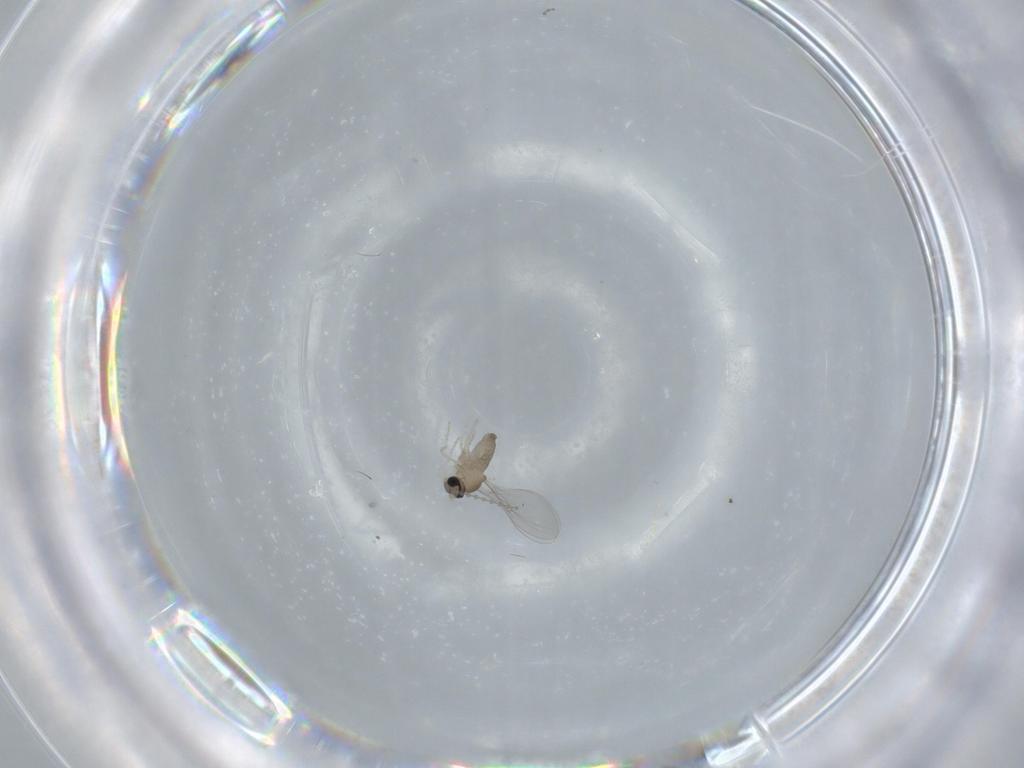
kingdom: Animalia
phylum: Arthropoda
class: Insecta
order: Diptera
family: Cecidomyiidae
